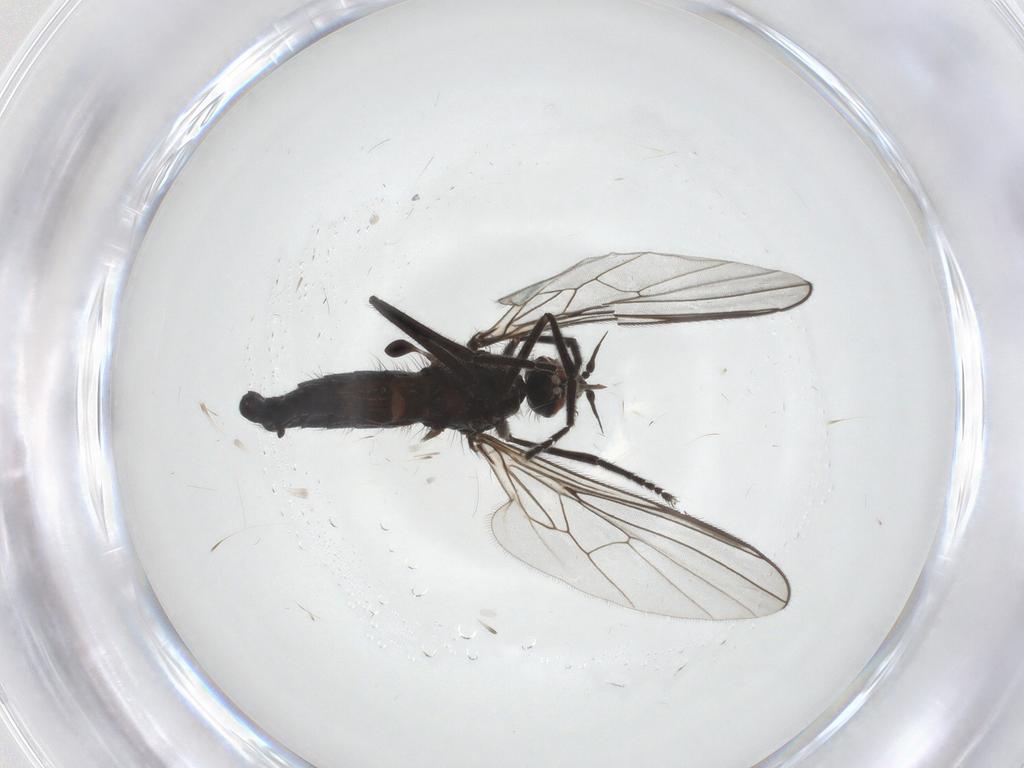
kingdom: Animalia
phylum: Arthropoda
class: Insecta
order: Diptera
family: Empididae
